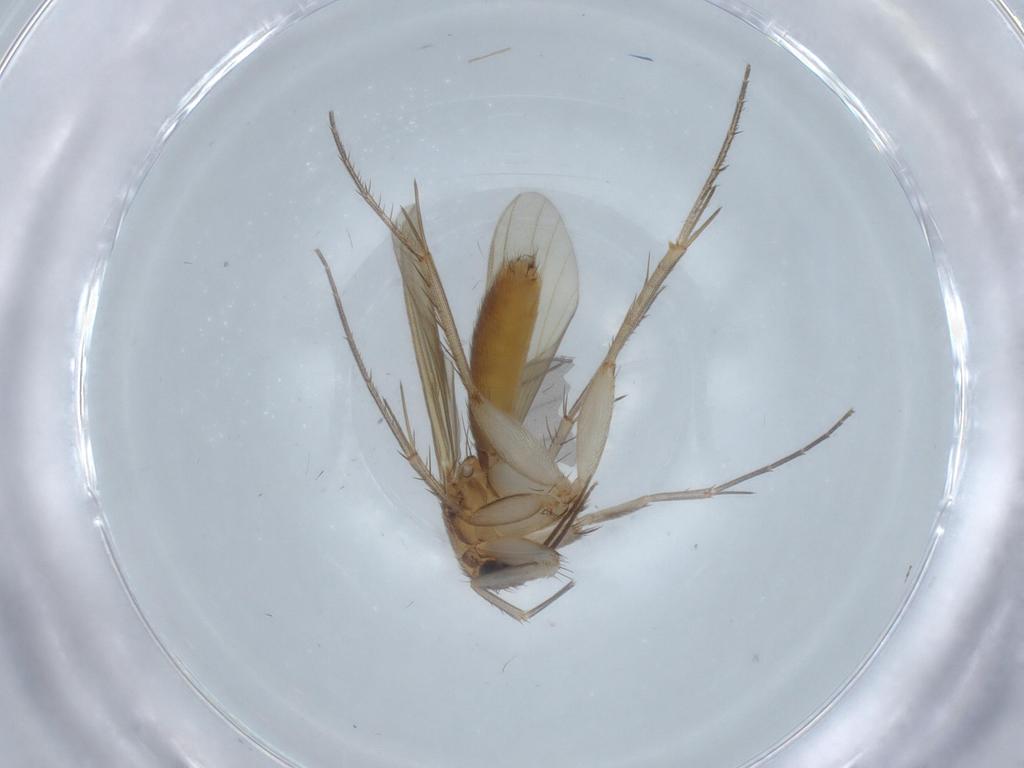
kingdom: Animalia
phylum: Arthropoda
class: Insecta
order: Diptera
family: Mycetophilidae
